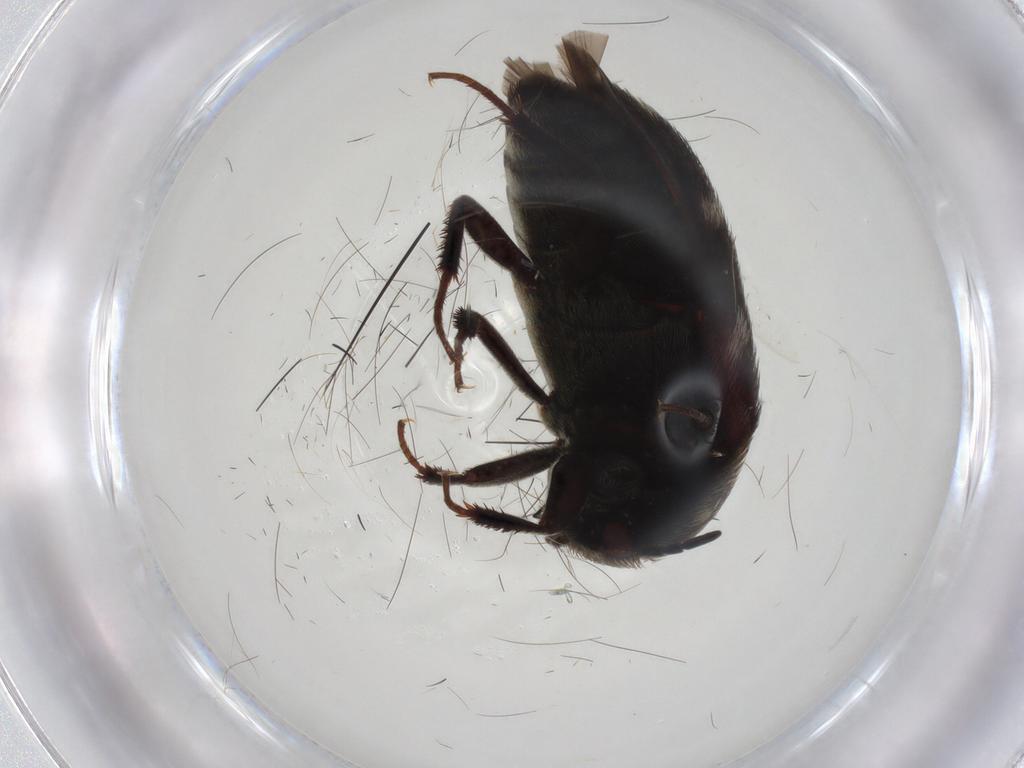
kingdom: Animalia
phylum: Arthropoda
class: Insecta
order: Coleoptera
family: Dermestidae
